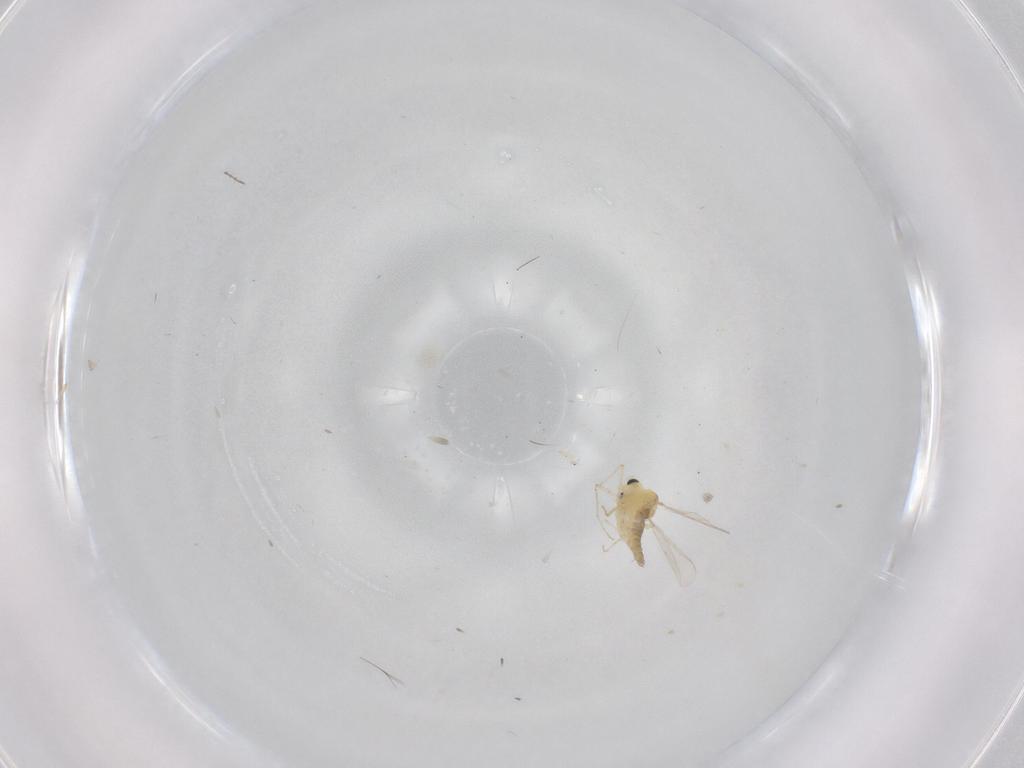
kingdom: Animalia
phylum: Arthropoda
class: Insecta
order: Diptera
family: Chironomidae
